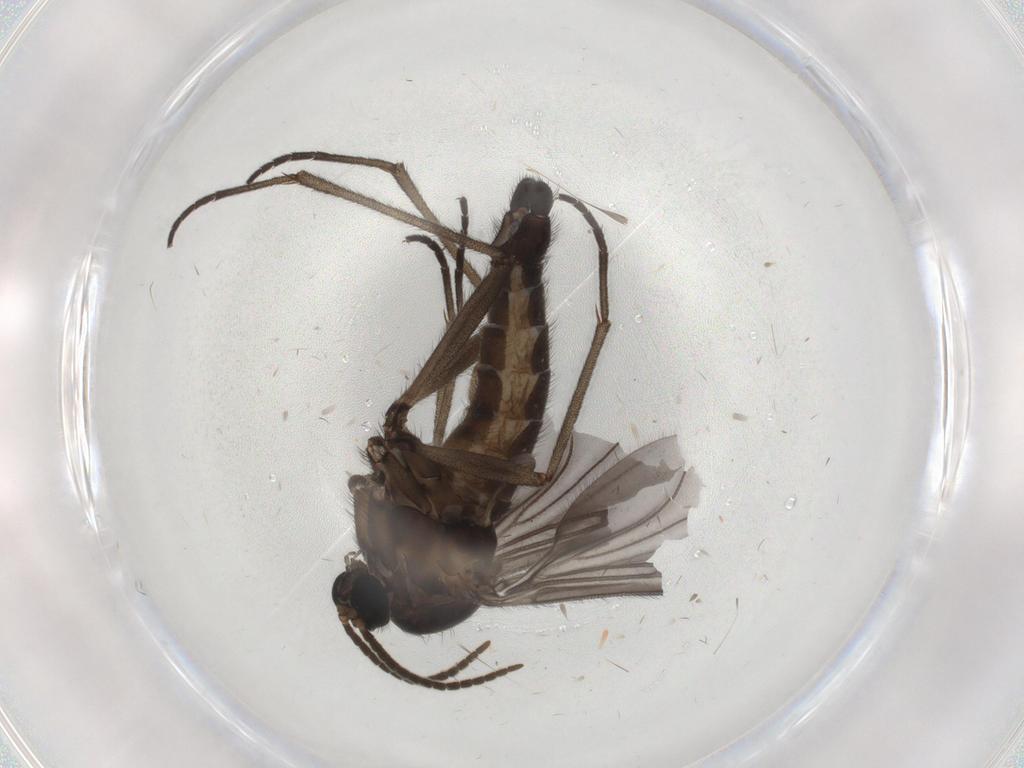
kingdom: Animalia
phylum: Arthropoda
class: Insecta
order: Diptera
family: Sciaridae
